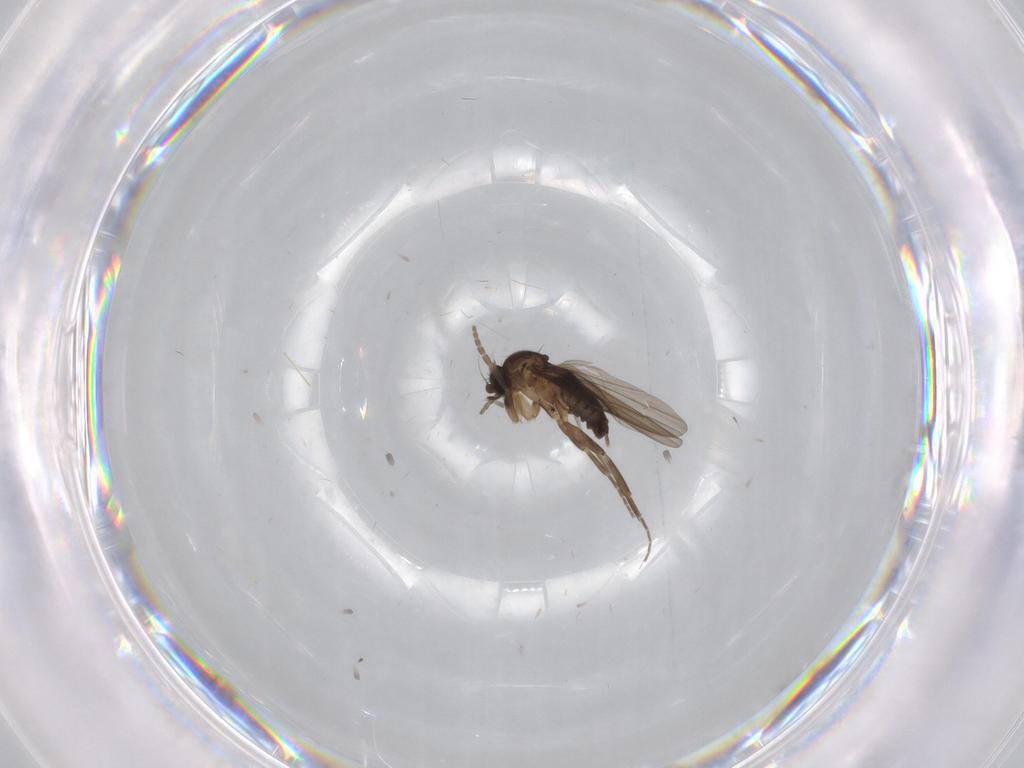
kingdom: Animalia
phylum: Arthropoda
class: Insecta
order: Diptera
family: Phoridae
